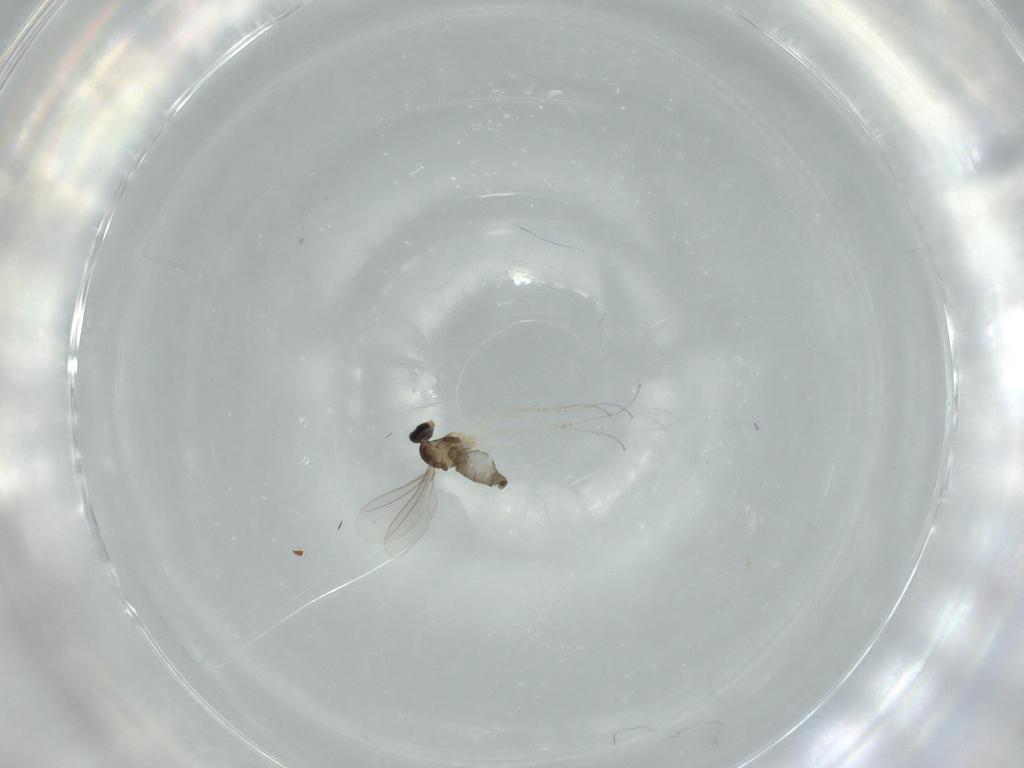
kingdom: Animalia
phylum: Arthropoda
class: Insecta
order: Diptera
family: Cecidomyiidae
